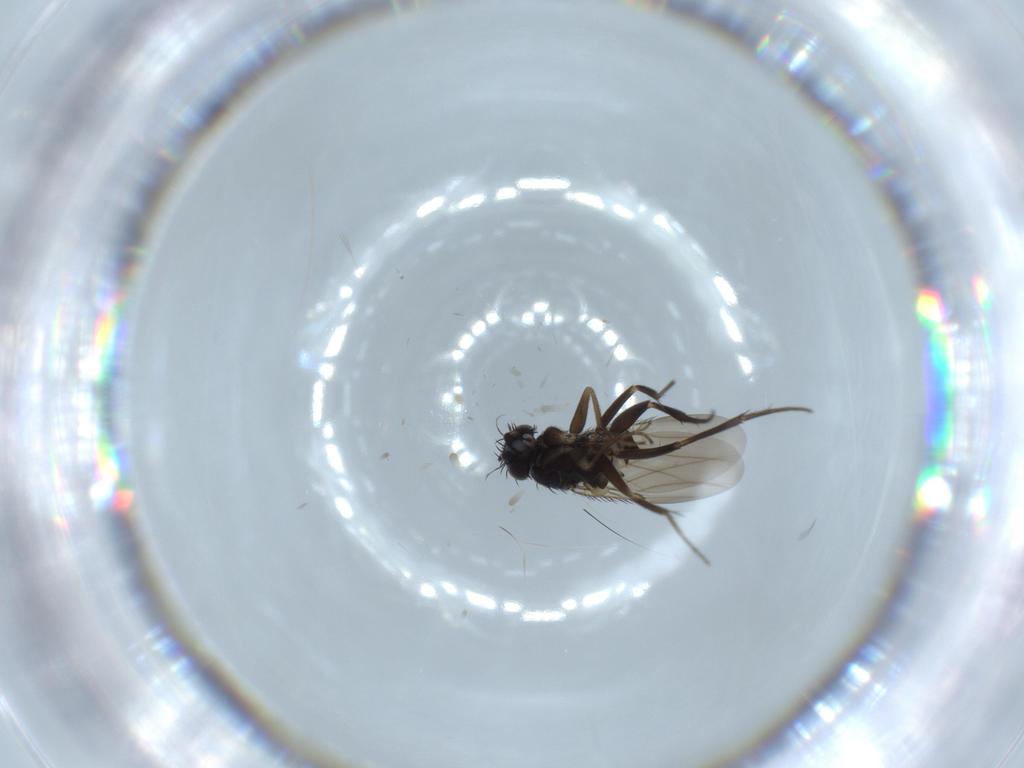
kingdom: Animalia
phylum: Arthropoda
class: Insecta
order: Diptera
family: Phoridae
